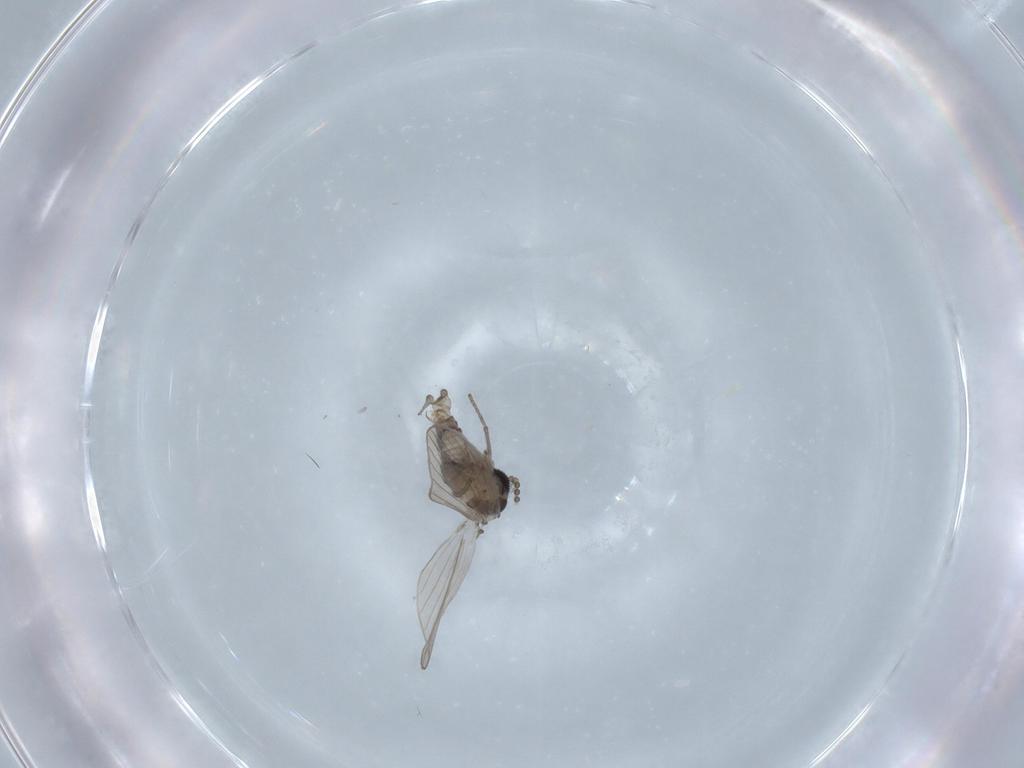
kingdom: Animalia
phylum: Arthropoda
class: Insecta
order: Diptera
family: Psychodidae
